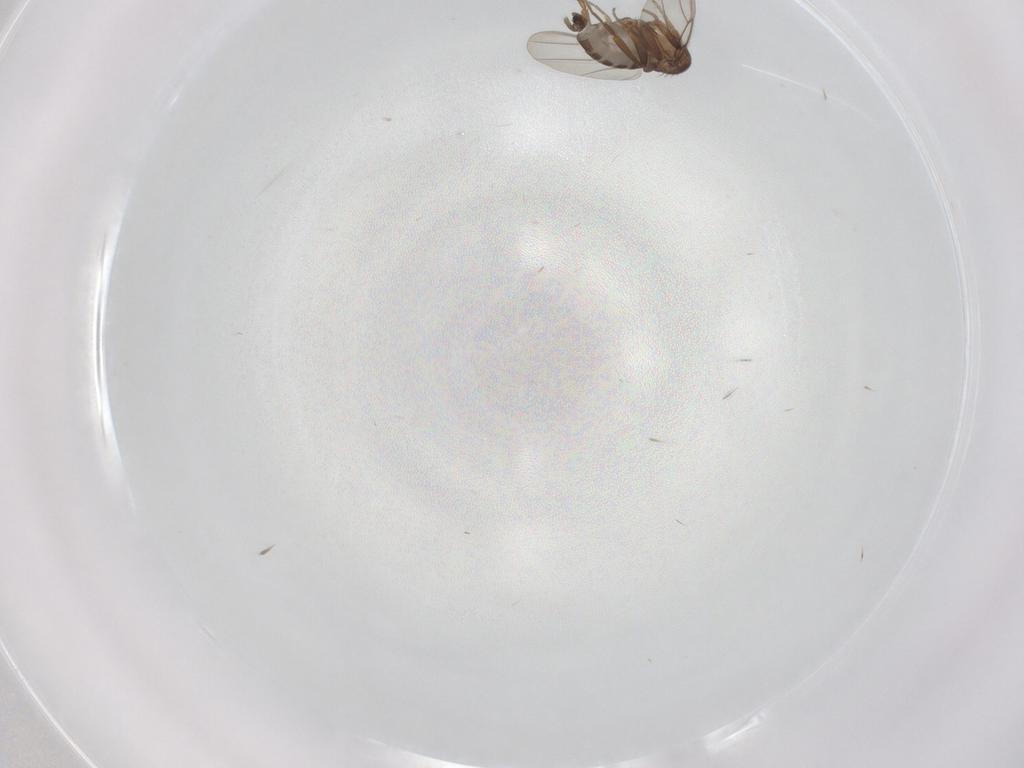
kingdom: Animalia
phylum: Arthropoda
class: Insecta
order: Diptera
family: Phoridae
